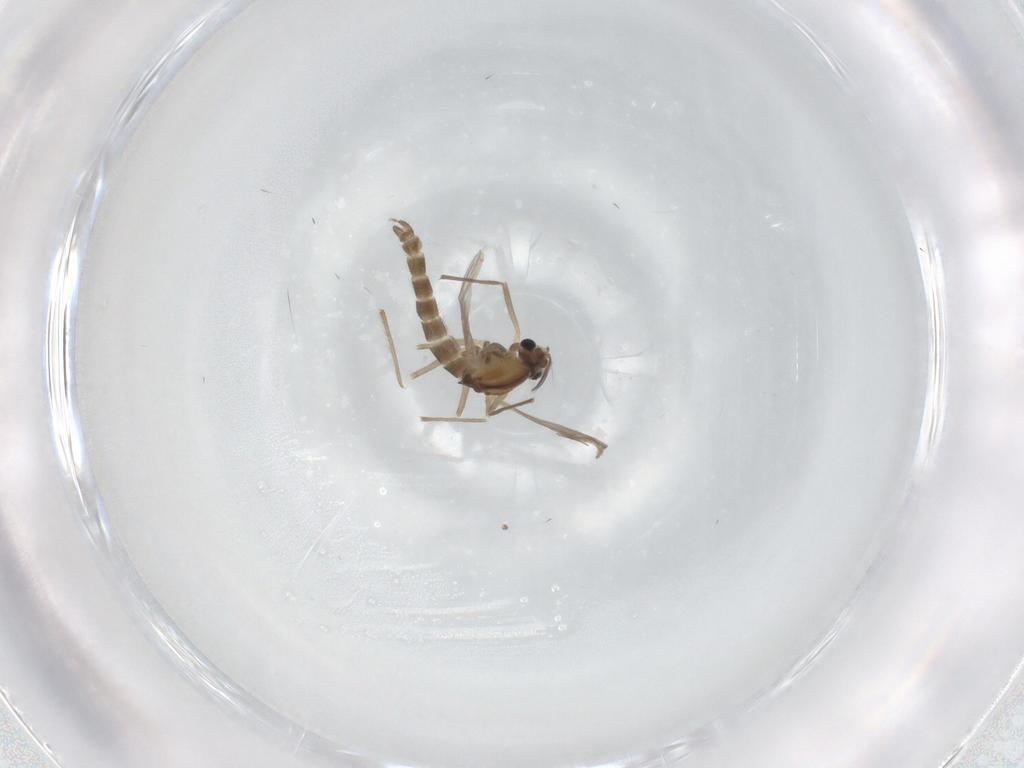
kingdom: Animalia
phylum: Arthropoda
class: Insecta
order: Diptera
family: Chironomidae
